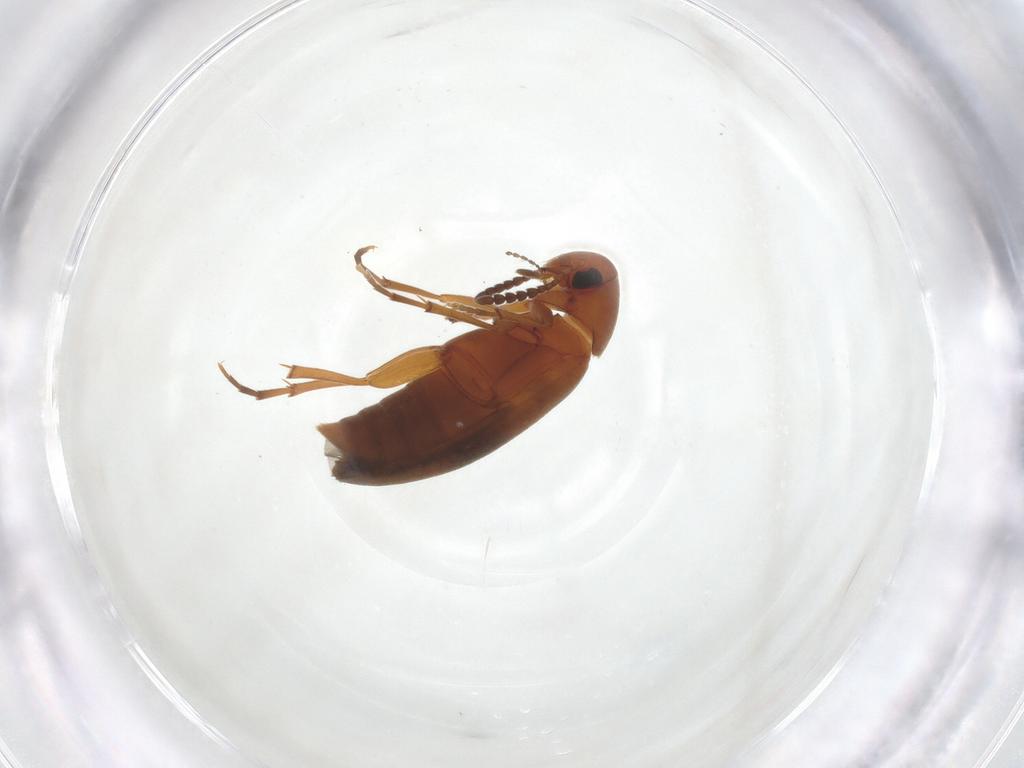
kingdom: Animalia
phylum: Arthropoda
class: Insecta
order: Coleoptera
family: Scraptiidae
